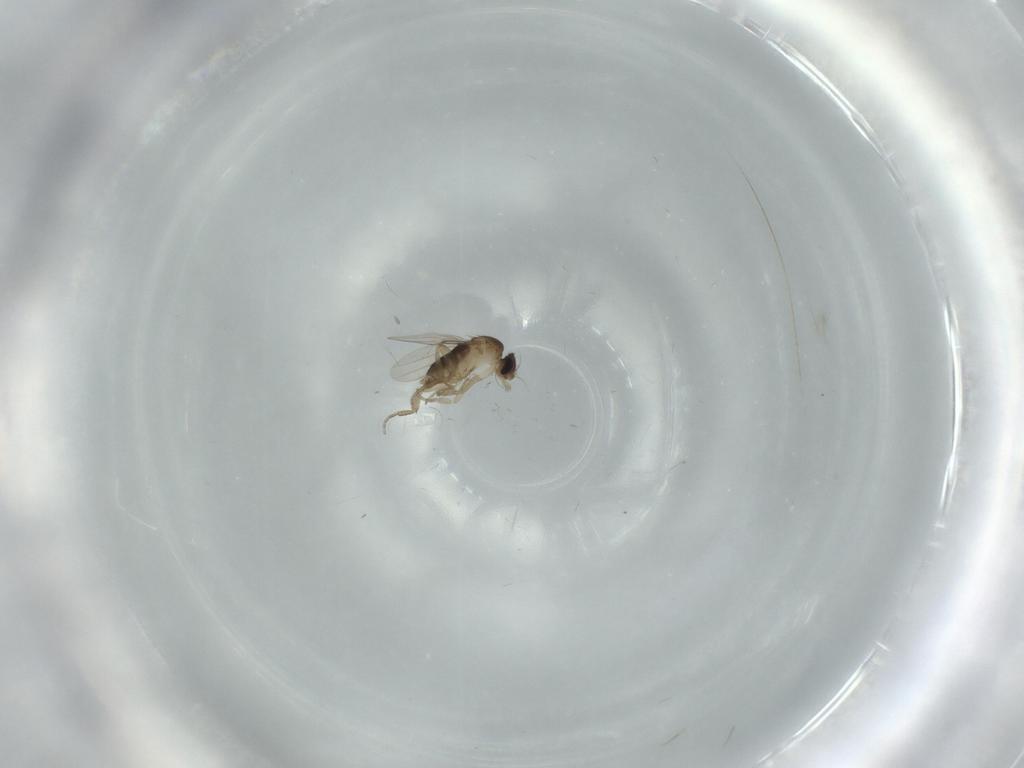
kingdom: Animalia
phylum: Arthropoda
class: Insecta
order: Diptera
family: Phoridae
